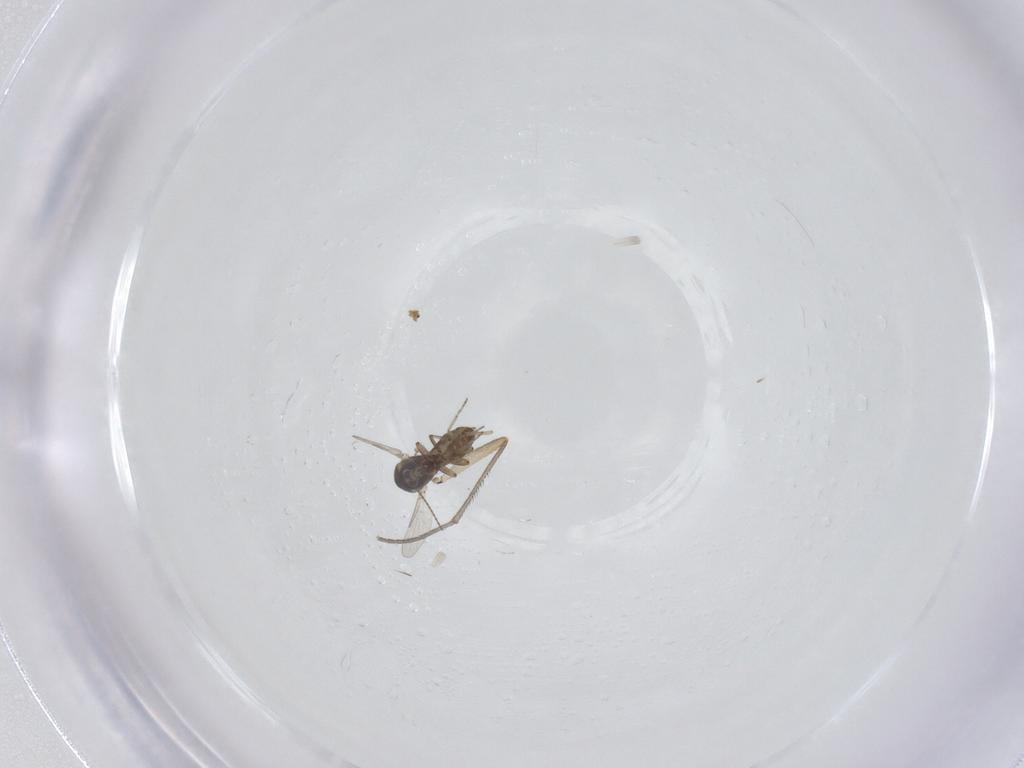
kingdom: Animalia
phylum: Arthropoda
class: Insecta
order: Diptera
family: Ceratopogonidae
